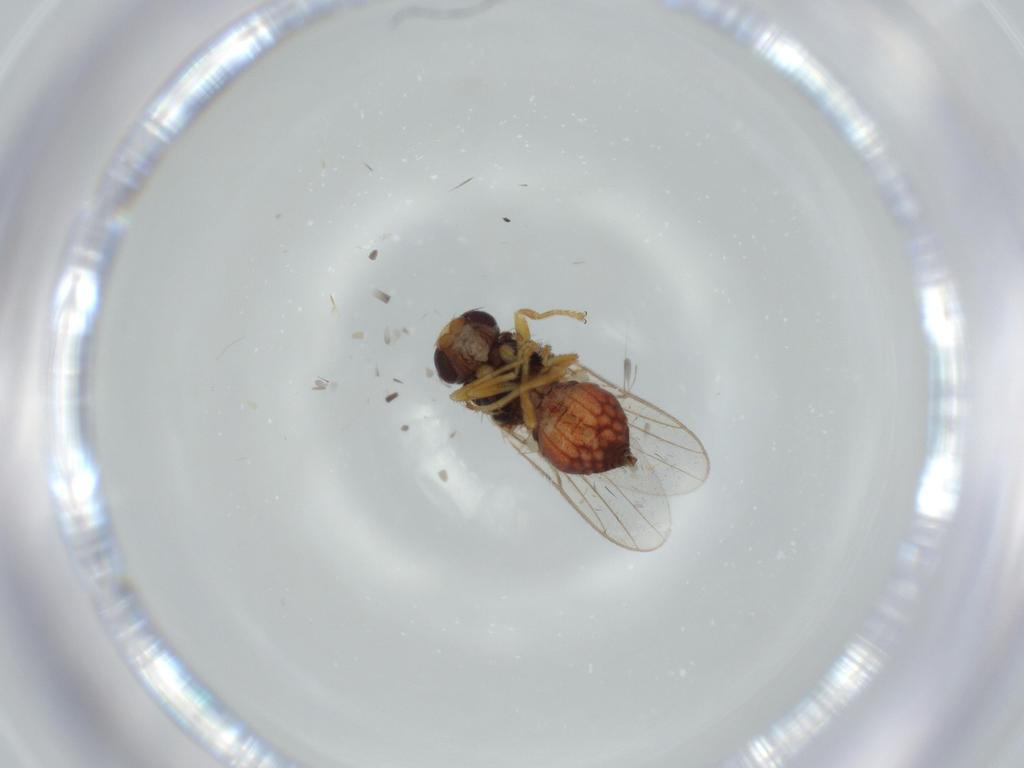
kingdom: Animalia
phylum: Arthropoda
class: Insecta
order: Diptera
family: Chloropidae
